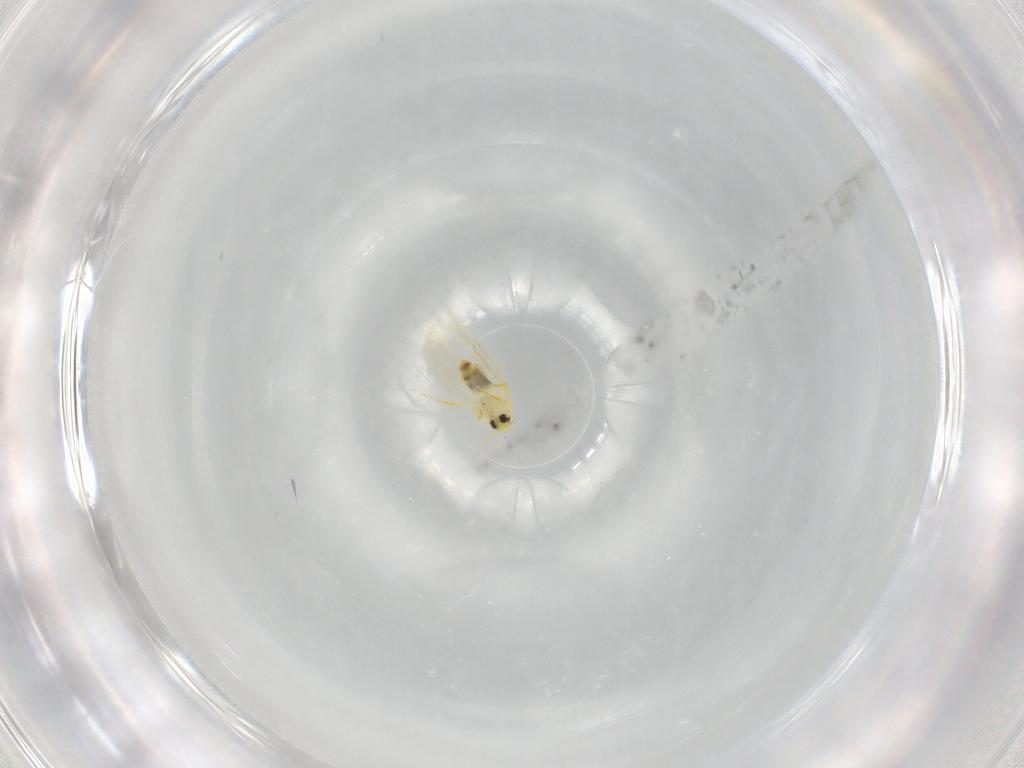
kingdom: Animalia
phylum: Arthropoda
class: Insecta
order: Hemiptera
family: Aleyrodidae
